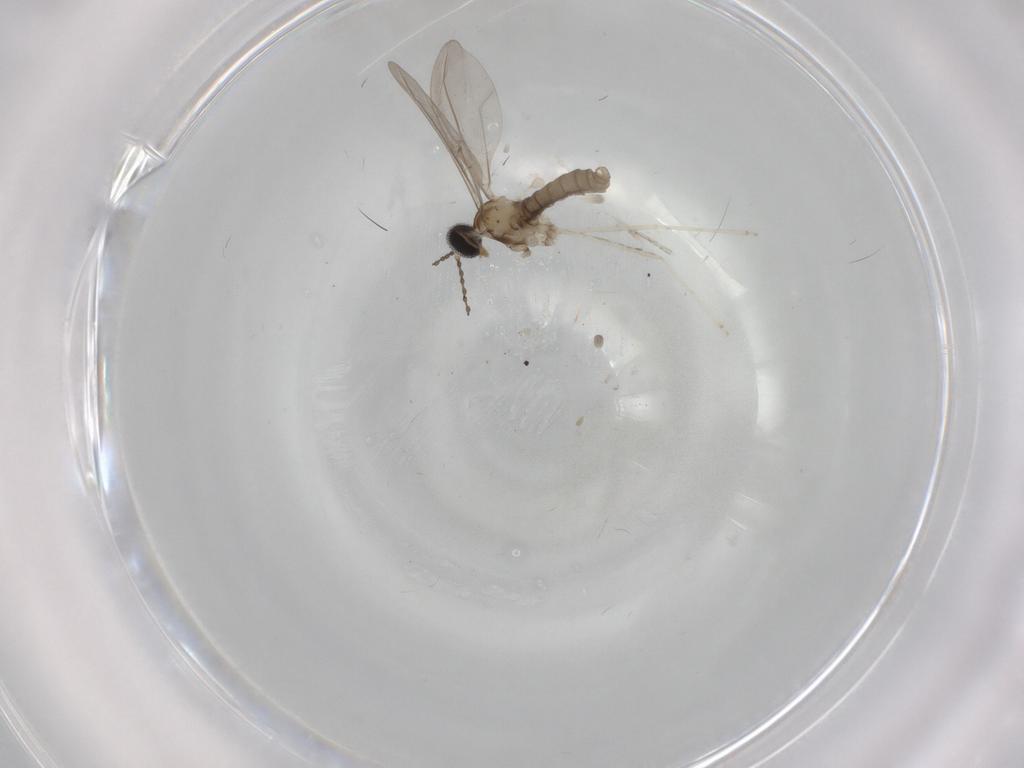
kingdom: Animalia
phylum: Arthropoda
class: Insecta
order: Diptera
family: Cecidomyiidae
